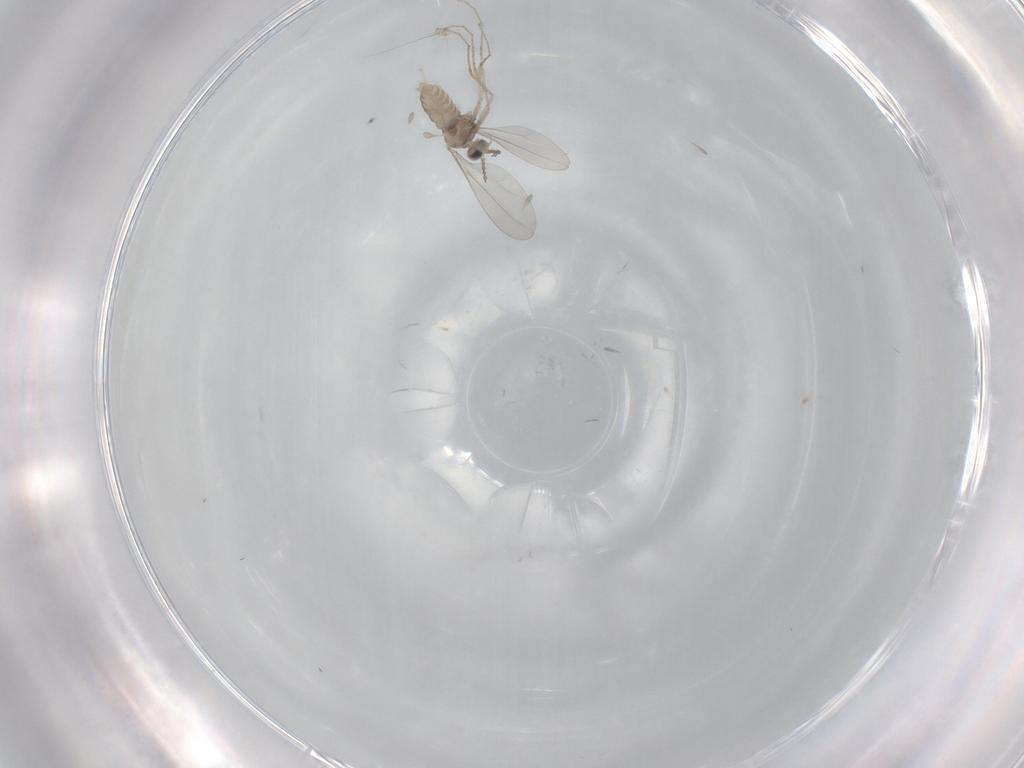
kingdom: Animalia
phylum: Arthropoda
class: Insecta
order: Diptera
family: Cecidomyiidae
